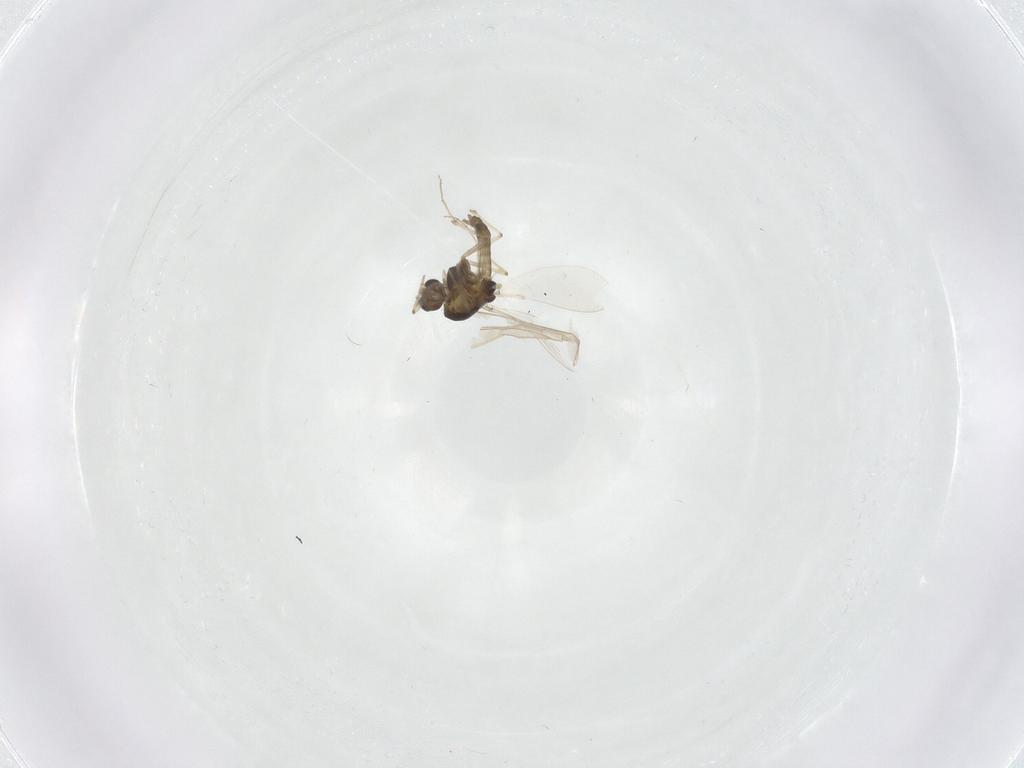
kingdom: Animalia
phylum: Arthropoda
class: Insecta
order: Diptera
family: Chironomidae
